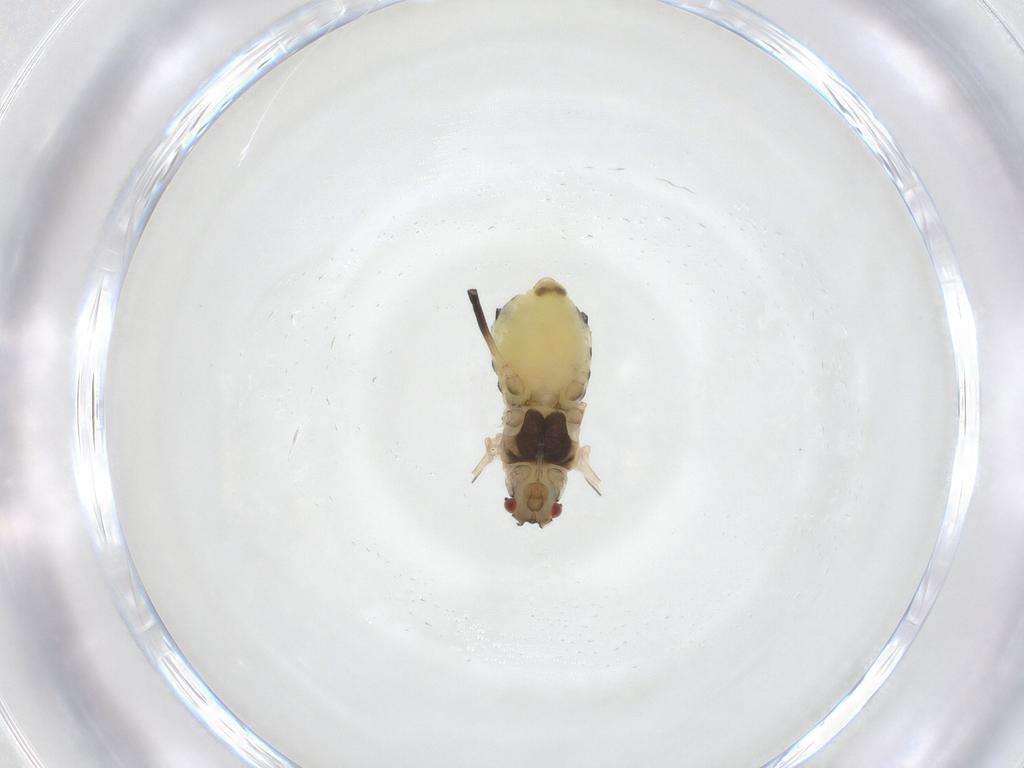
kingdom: Animalia
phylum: Arthropoda
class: Insecta
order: Hemiptera
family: Aphididae
